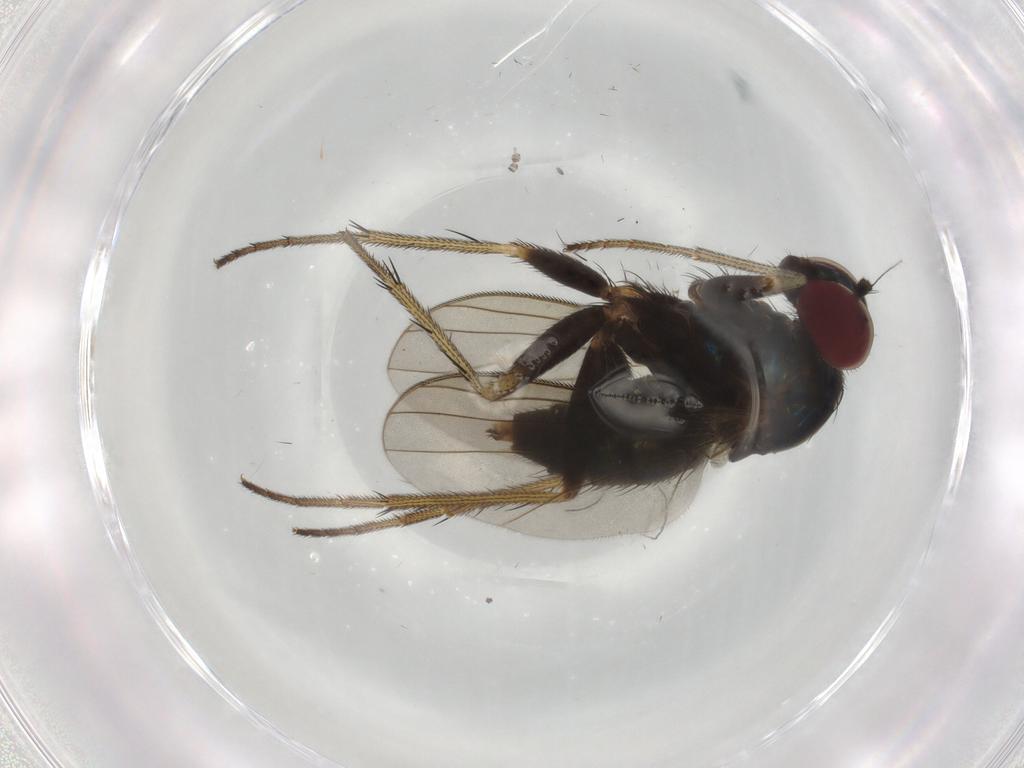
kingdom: Animalia
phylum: Arthropoda
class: Insecta
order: Diptera
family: Dolichopodidae
